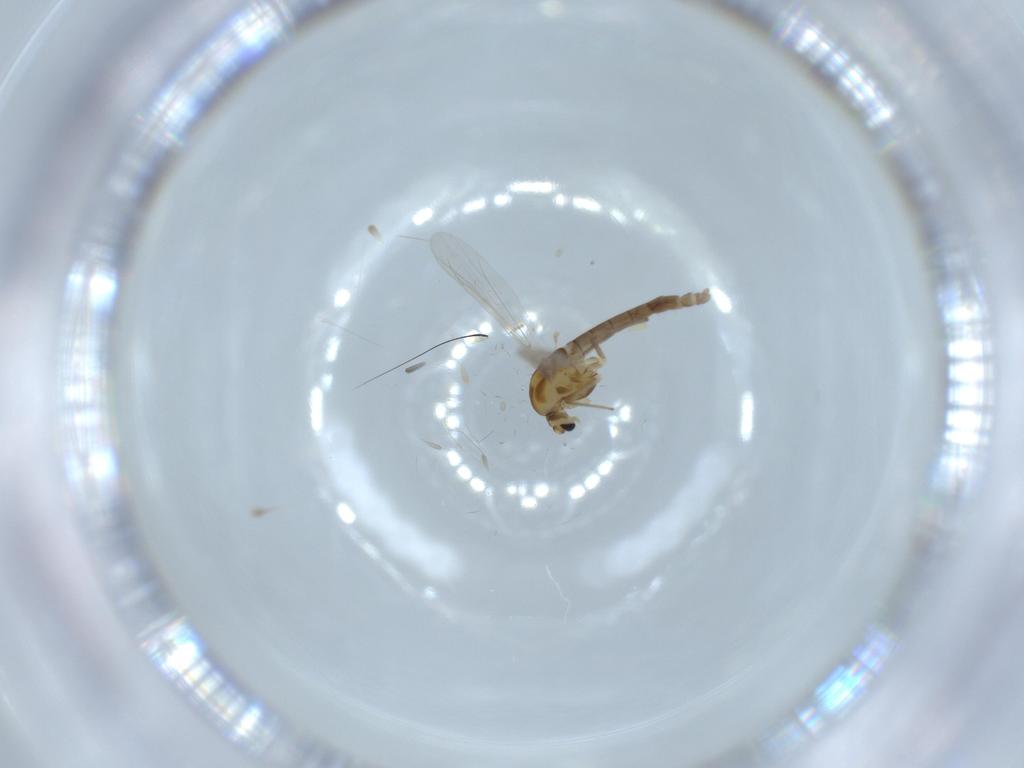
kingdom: Animalia
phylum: Arthropoda
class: Insecta
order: Diptera
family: Chironomidae
